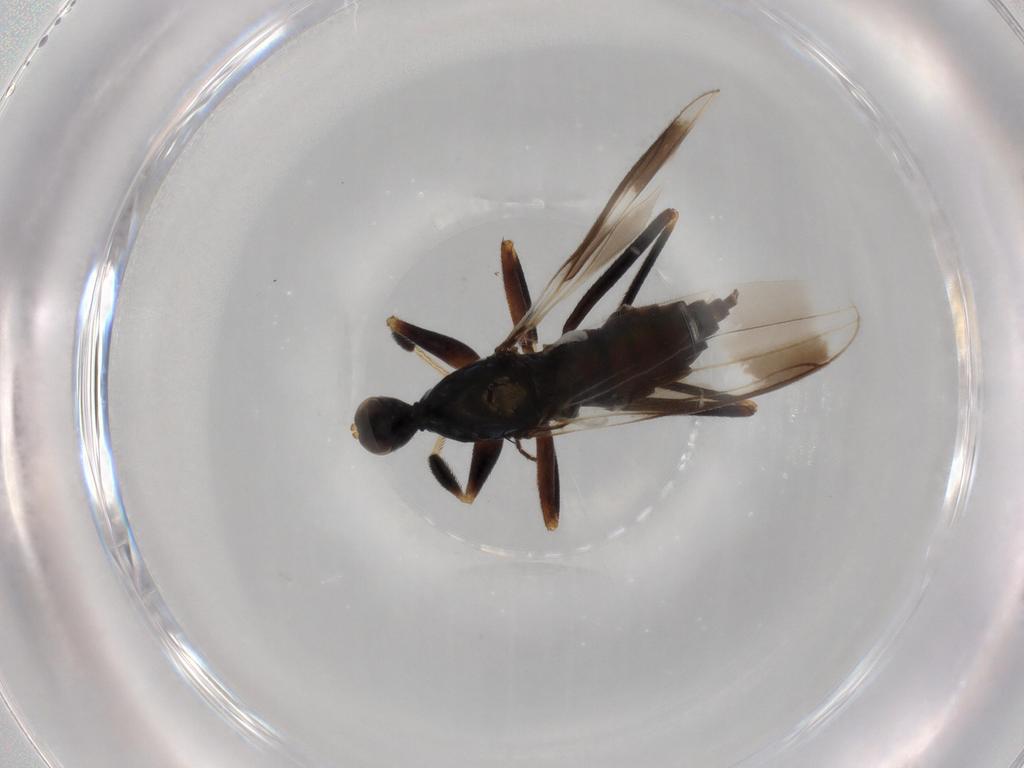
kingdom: Animalia
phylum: Arthropoda
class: Insecta
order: Diptera
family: Hybotidae
